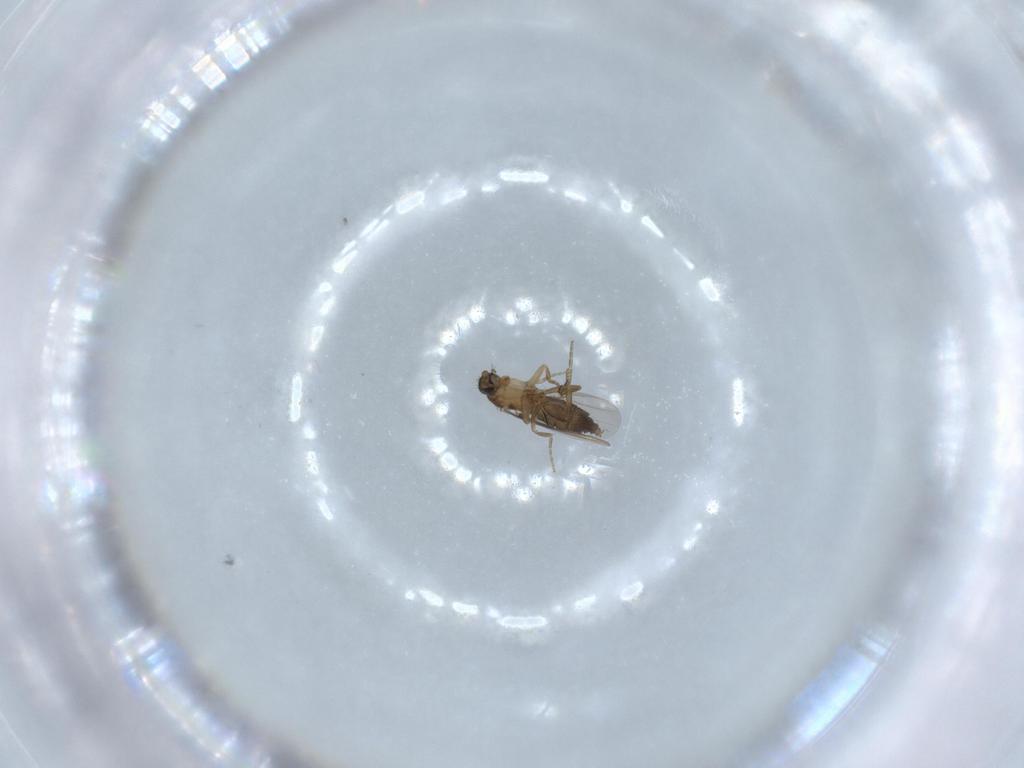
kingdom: Animalia
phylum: Arthropoda
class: Insecta
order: Diptera
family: Phoridae
